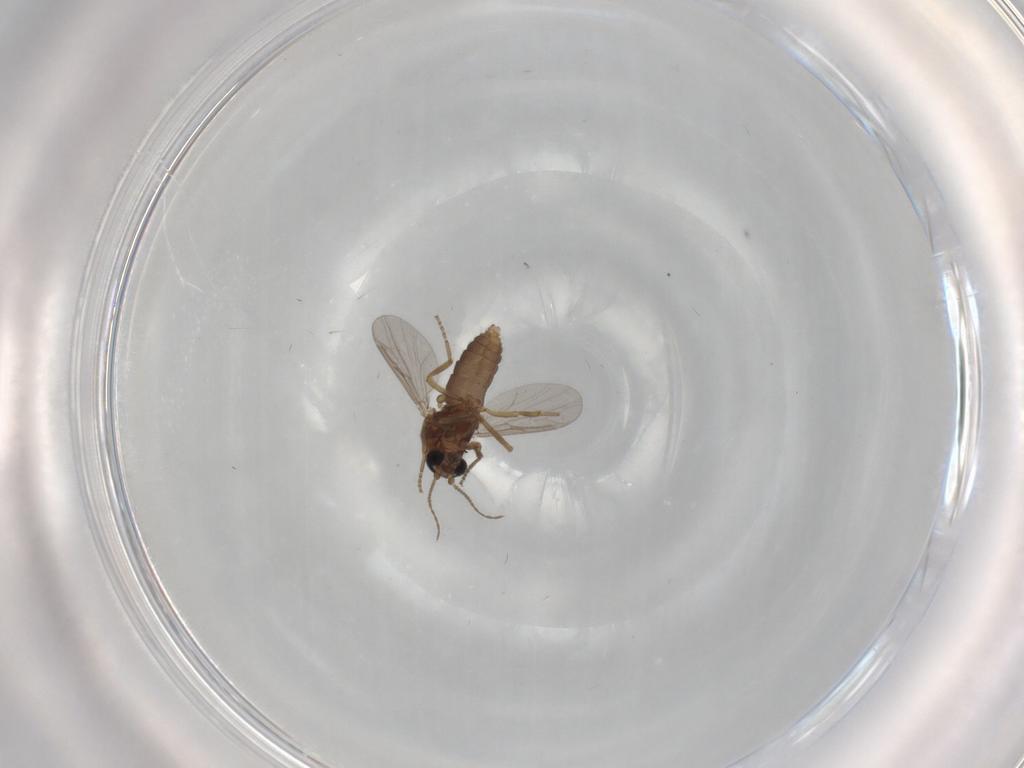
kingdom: Animalia
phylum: Arthropoda
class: Insecta
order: Diptera
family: Ceratopogonidae
